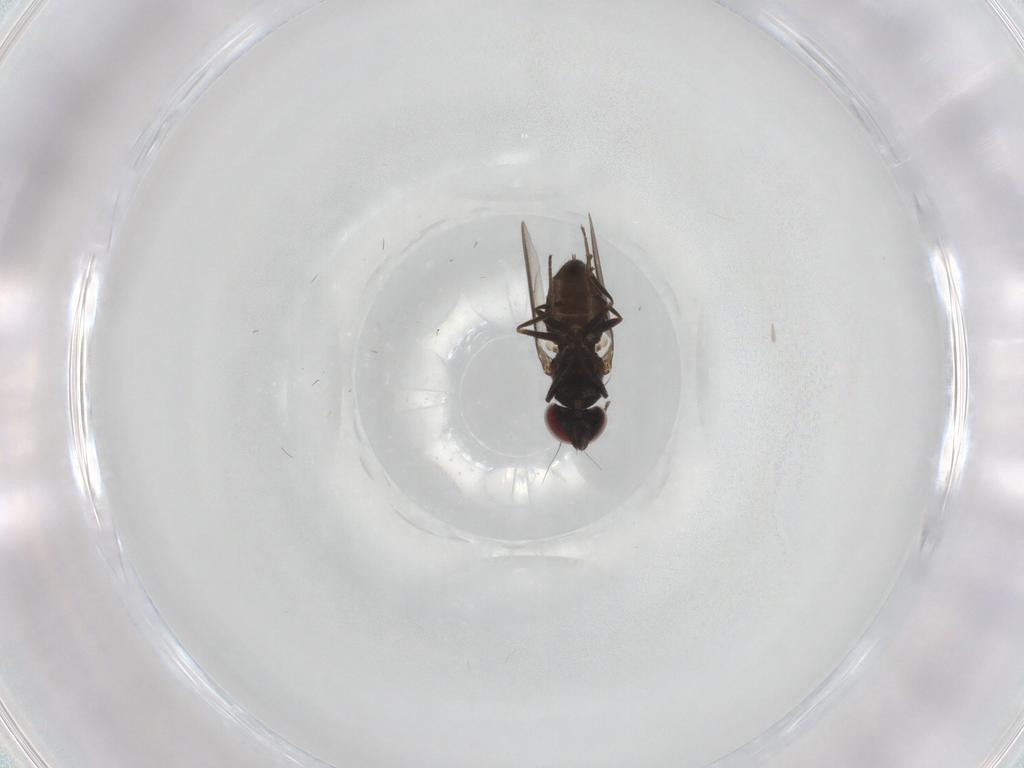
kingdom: Animalia
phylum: Arthropoda
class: Insecta
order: Diptera
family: Dolichopodidae
